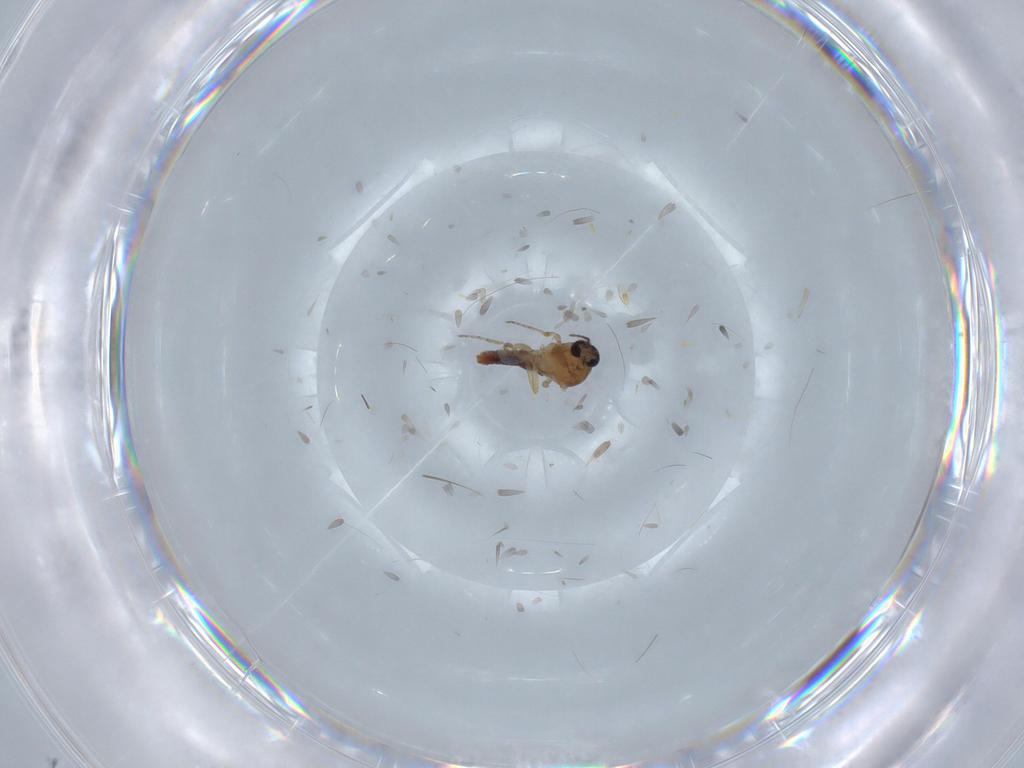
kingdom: Animalia
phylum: Arthropoda
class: Insecta
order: Diptera
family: Ceratopogonidae
